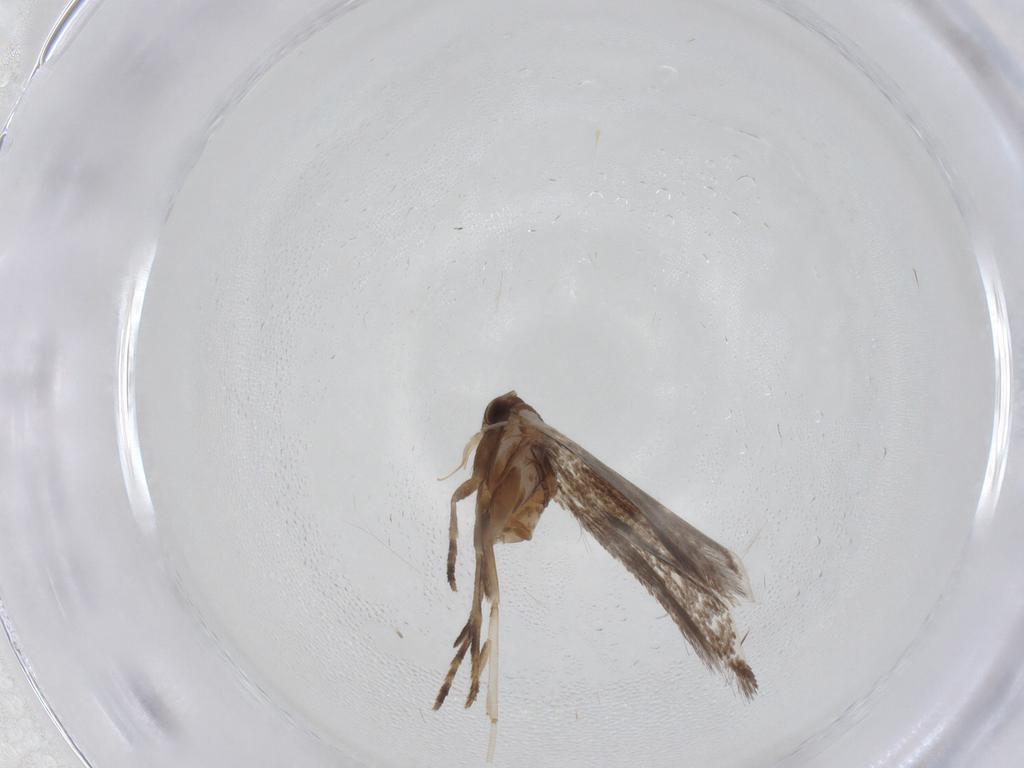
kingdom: Animalia
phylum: Arthropoda
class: Insecta
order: Lepidoptera
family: Elachistidae
